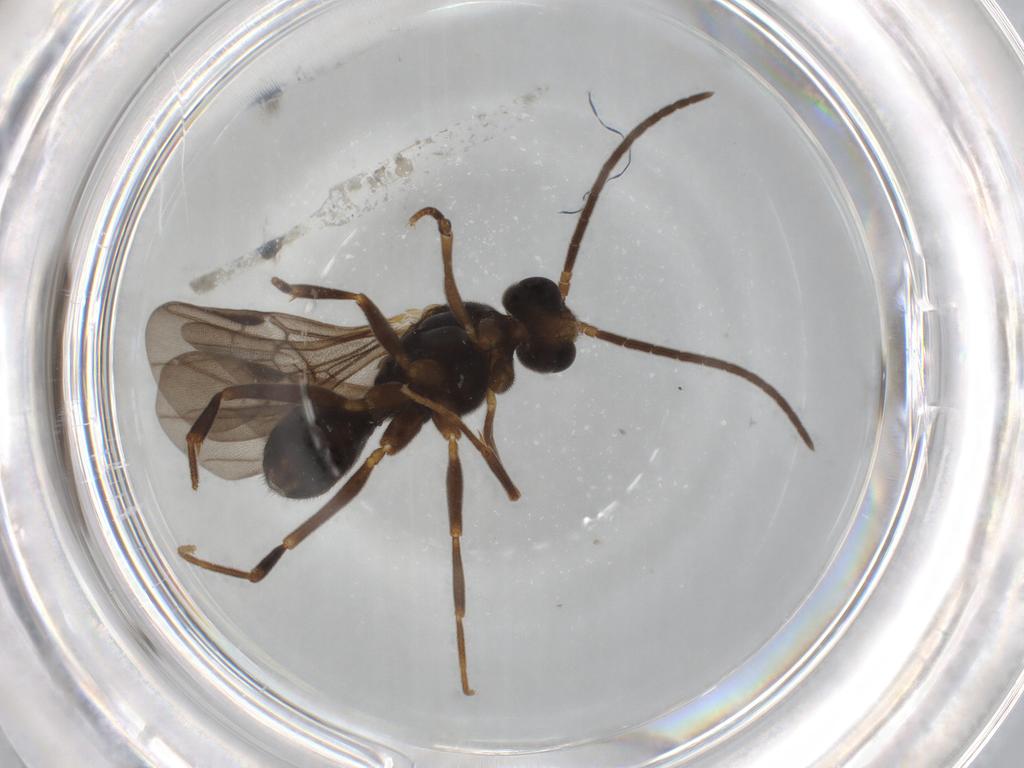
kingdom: Animalia
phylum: Arthropoda
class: Insecta
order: Hymenoptera
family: Formicidae
